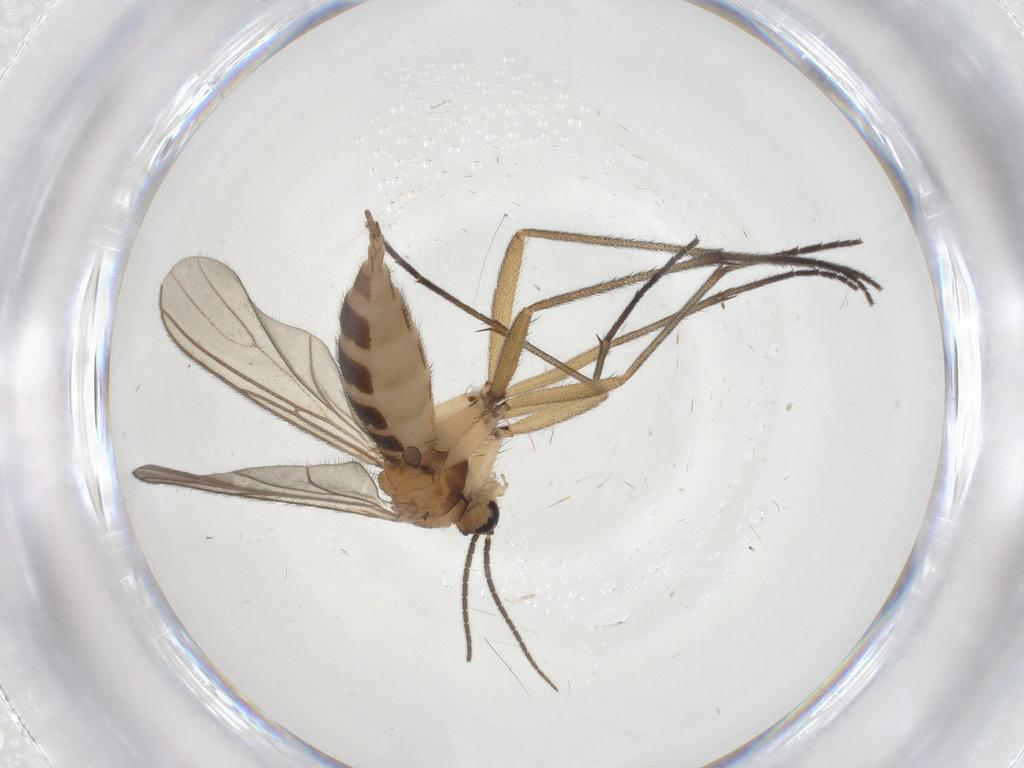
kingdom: Animalia
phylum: Arthropoda
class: Insecta
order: Diptera
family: Sciaridae
